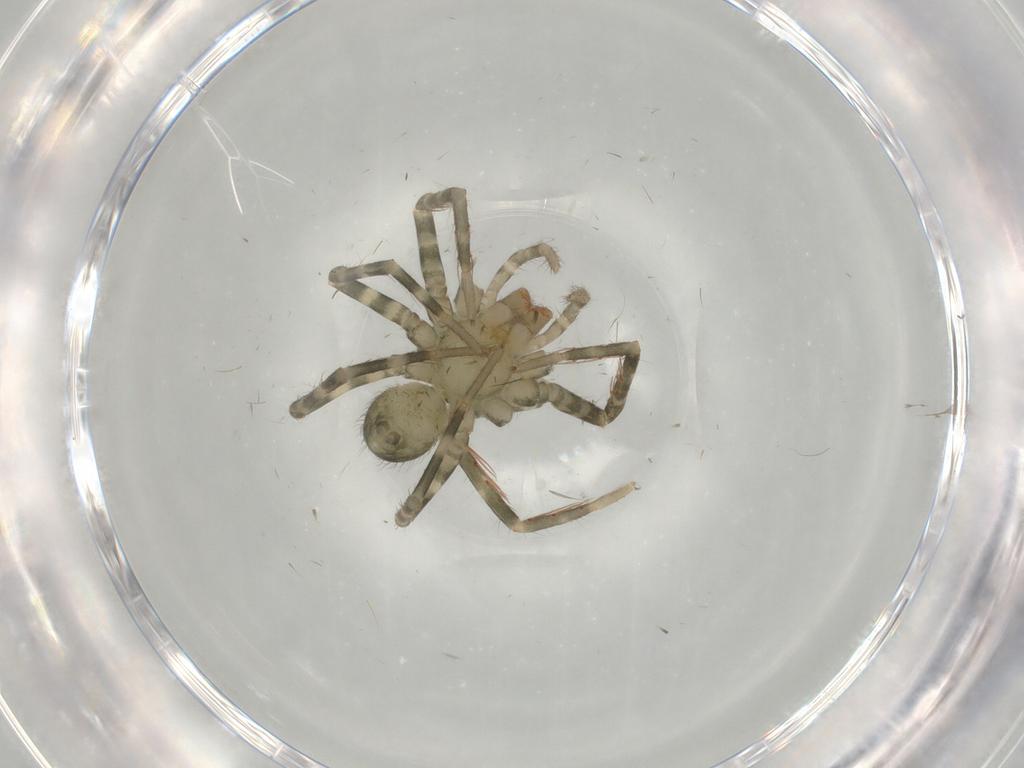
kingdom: Animalia
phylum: Arthropoda
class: Arachnida
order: Araneae
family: Ctenidae
